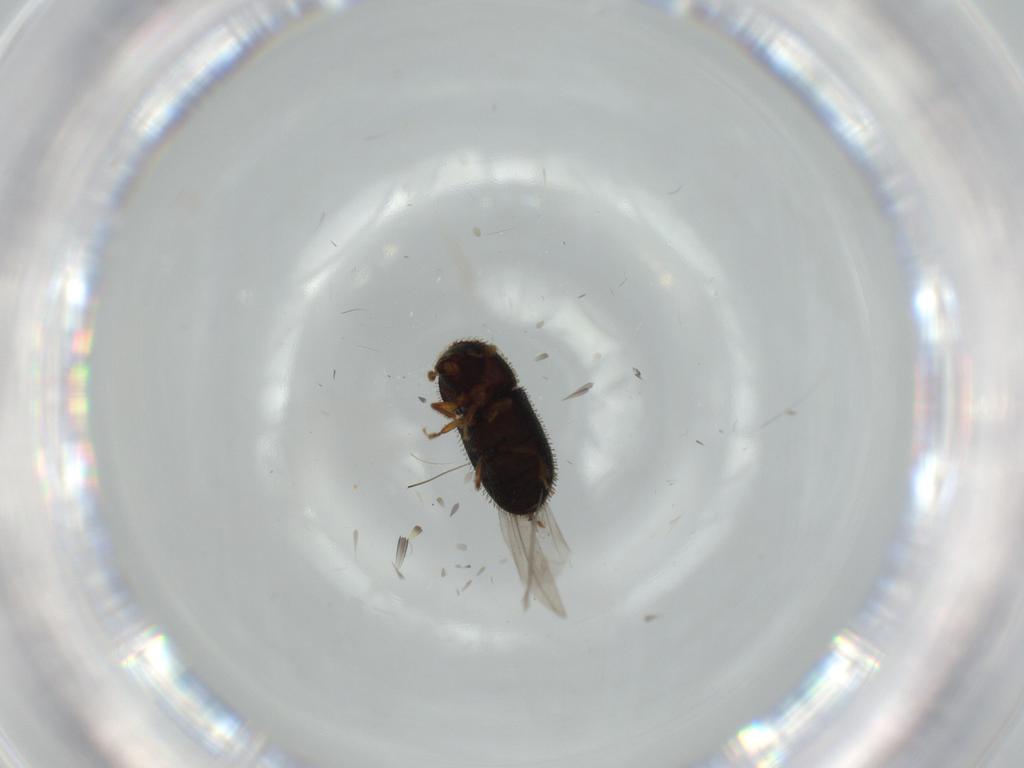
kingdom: Animalia
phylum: Arthropoda
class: Insecta
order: Coleoptera
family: Curculionidae
